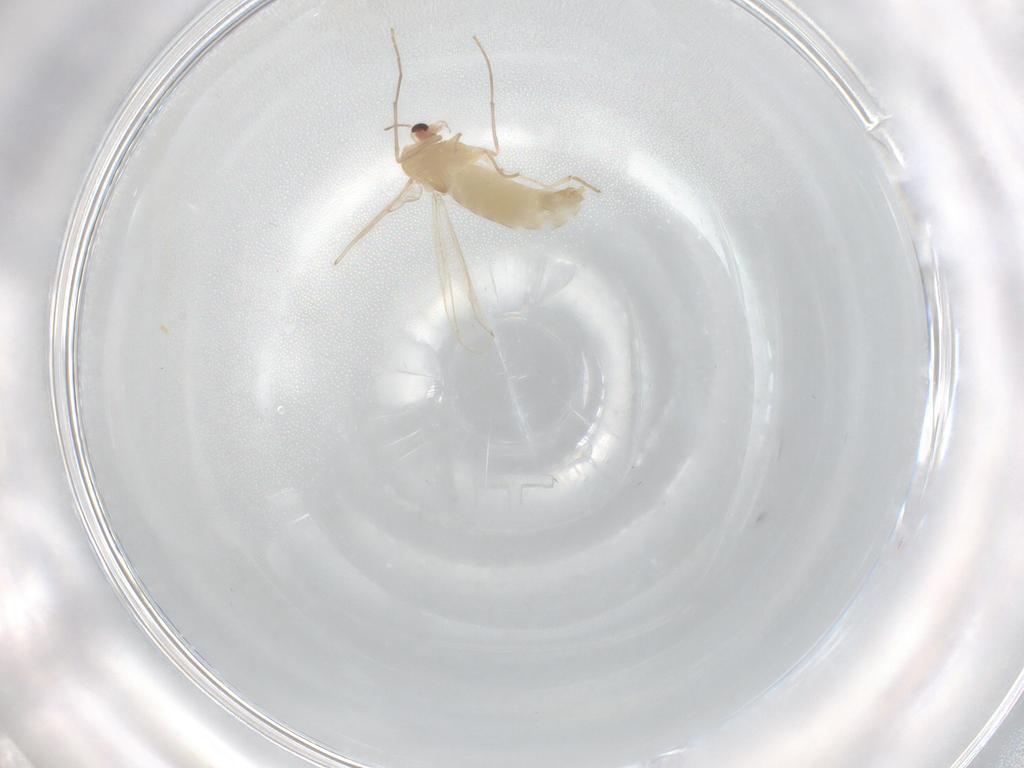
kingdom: Animalia
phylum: Arthropoda
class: Insecta
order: Diptera
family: Chironomidae
